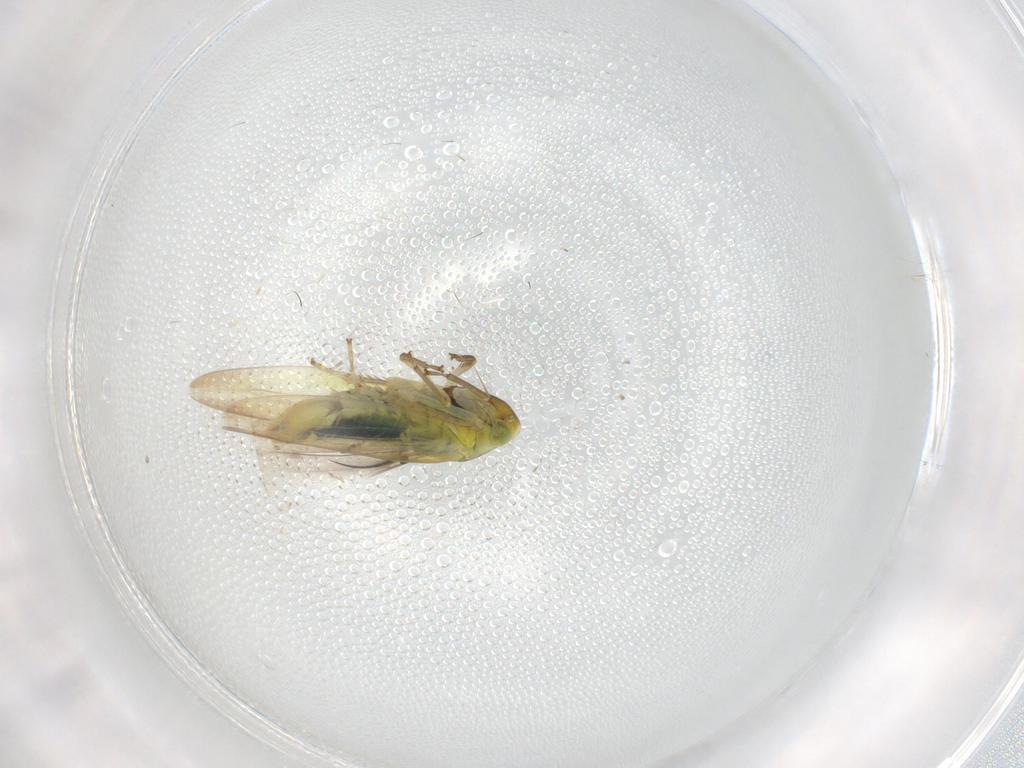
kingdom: Animalia
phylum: Arthropoda
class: Insecta
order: Hemiptera
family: Cicadellidae
